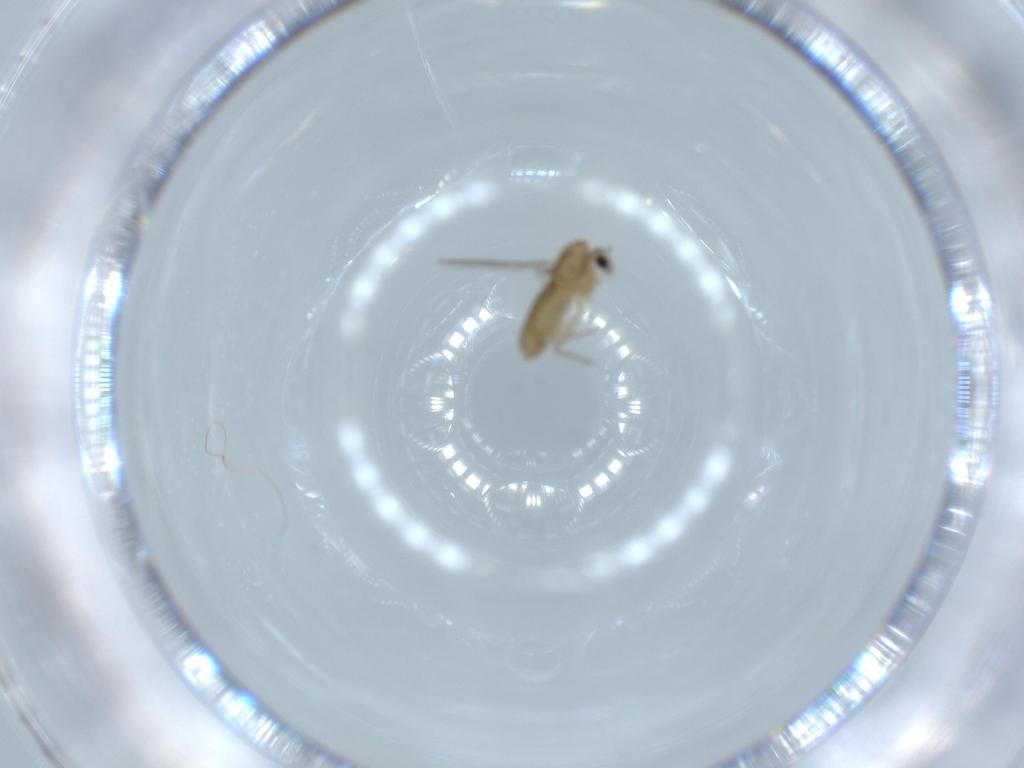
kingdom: Animalia
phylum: Arthropoda
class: Insecta
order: Diptera
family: Chironomidae
